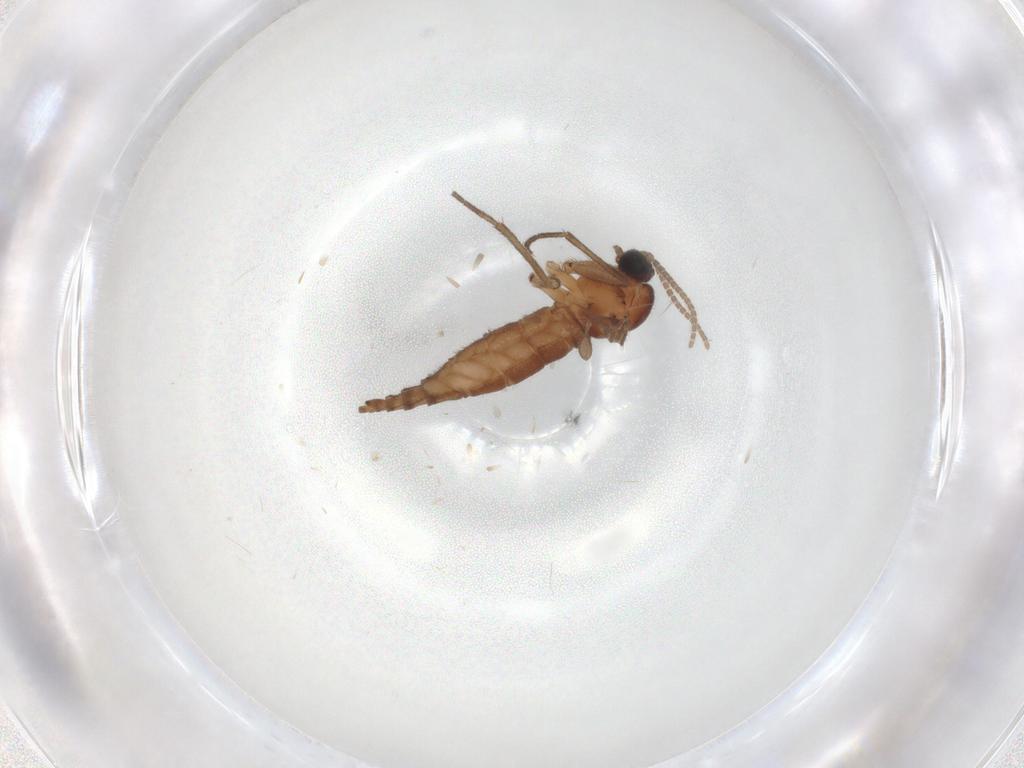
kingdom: Animalia
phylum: Arthropoda
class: Insecta
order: Diptera
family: Sciaridae
